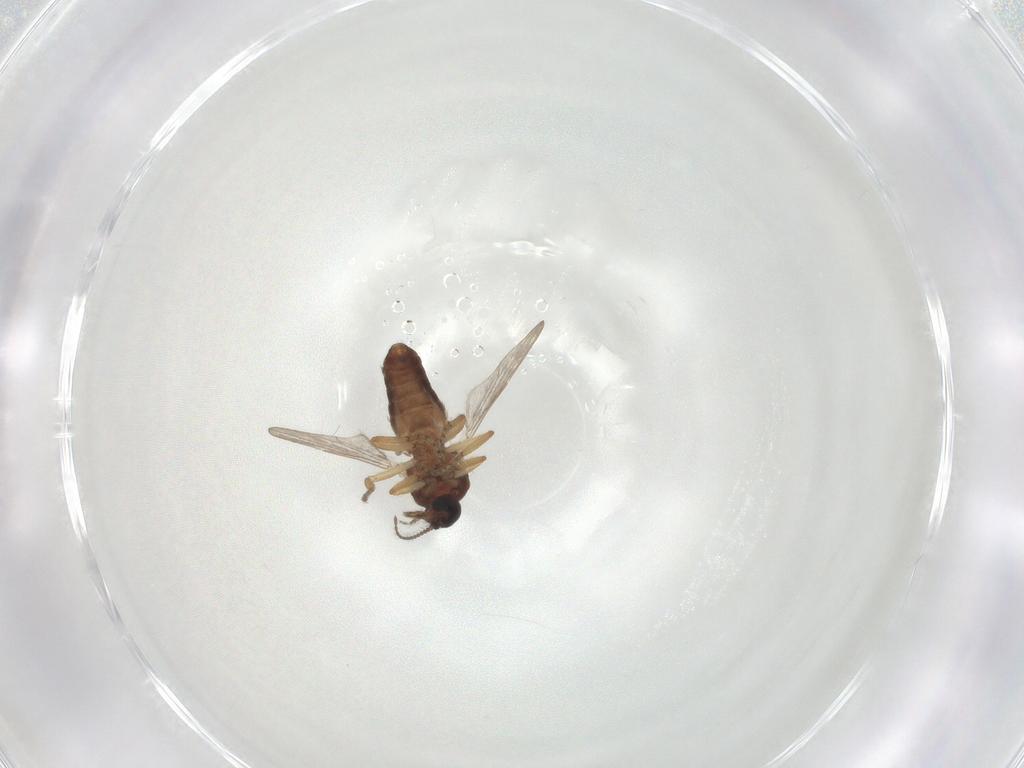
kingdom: Animalia
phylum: Arthropoda
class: Insecta
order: Diptera
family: Ceratopogonidae
